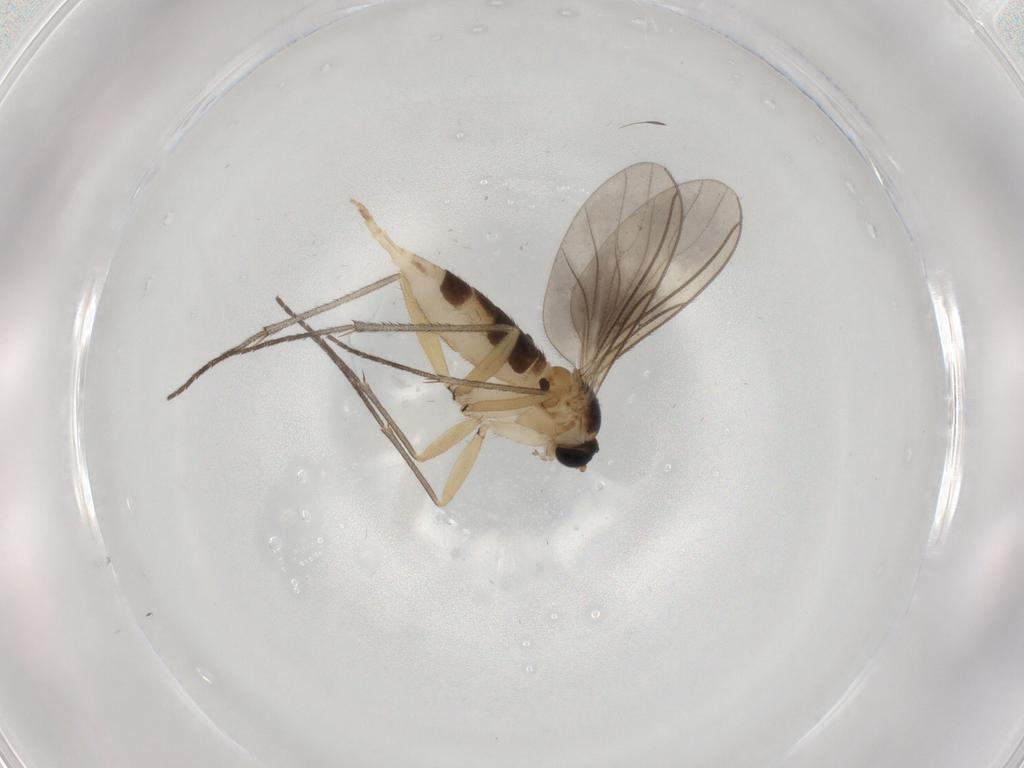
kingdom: Animalia
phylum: Arthropoda
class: Insecta
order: Diptera
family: Sciaridae
